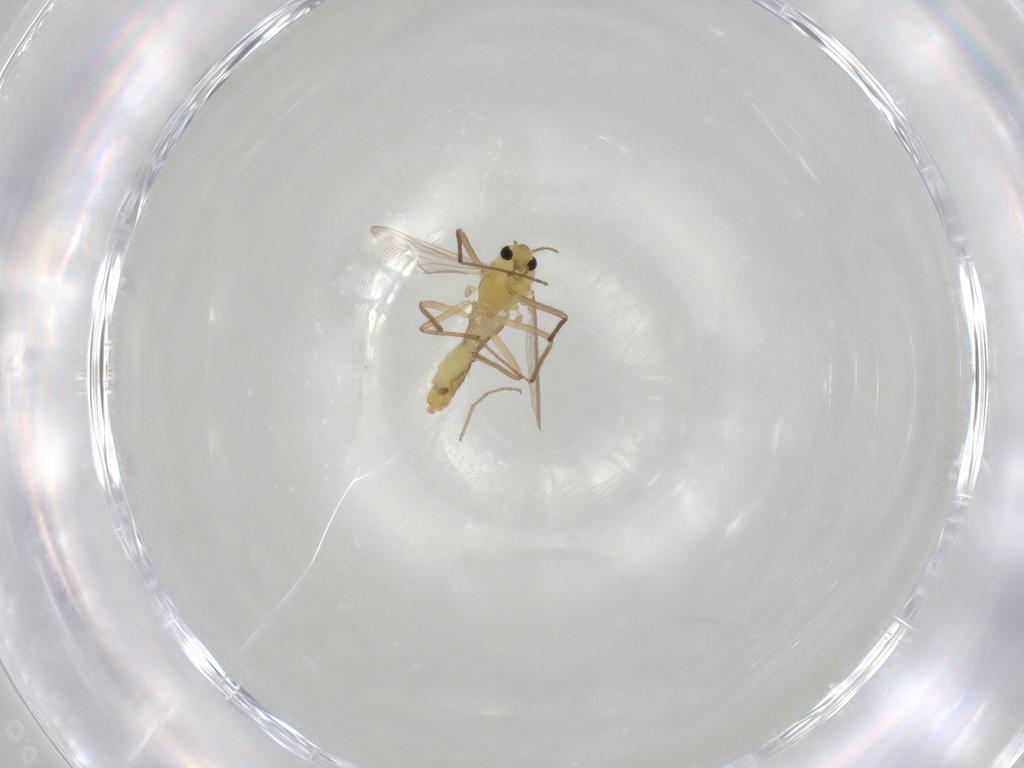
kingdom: Animalia
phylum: Arthropoda
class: Insecta
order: Diptera
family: Chironomidae
